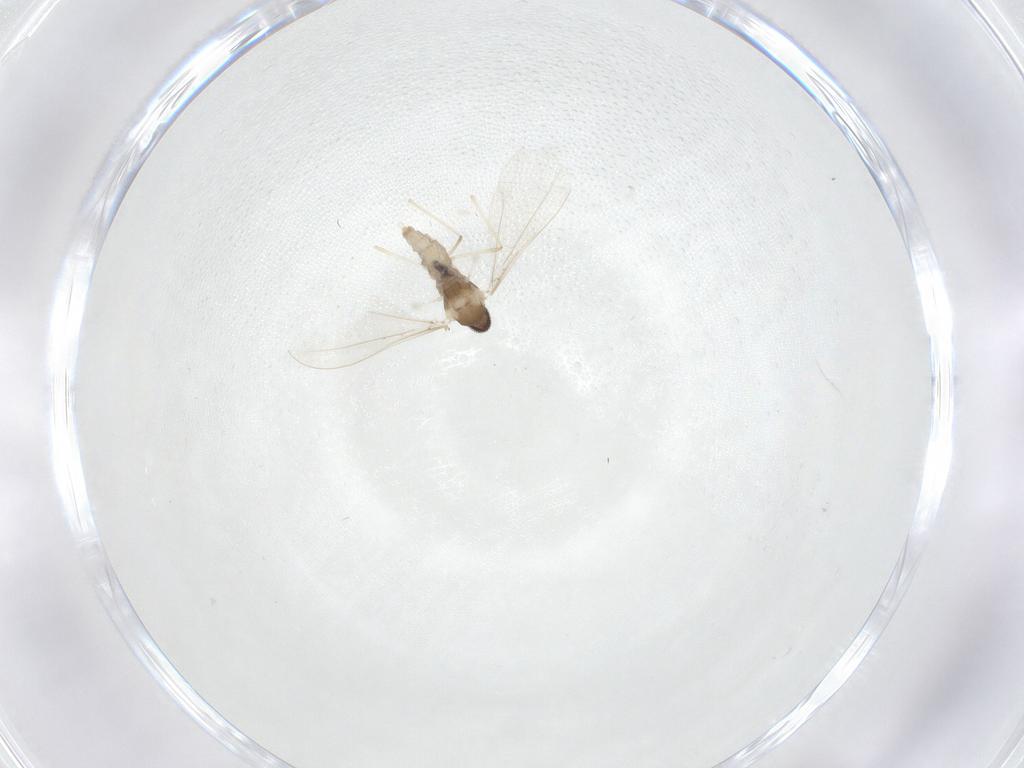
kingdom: Animalia
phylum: Arthropoda
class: Insecta
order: Diptera
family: Cecidomyiidae
